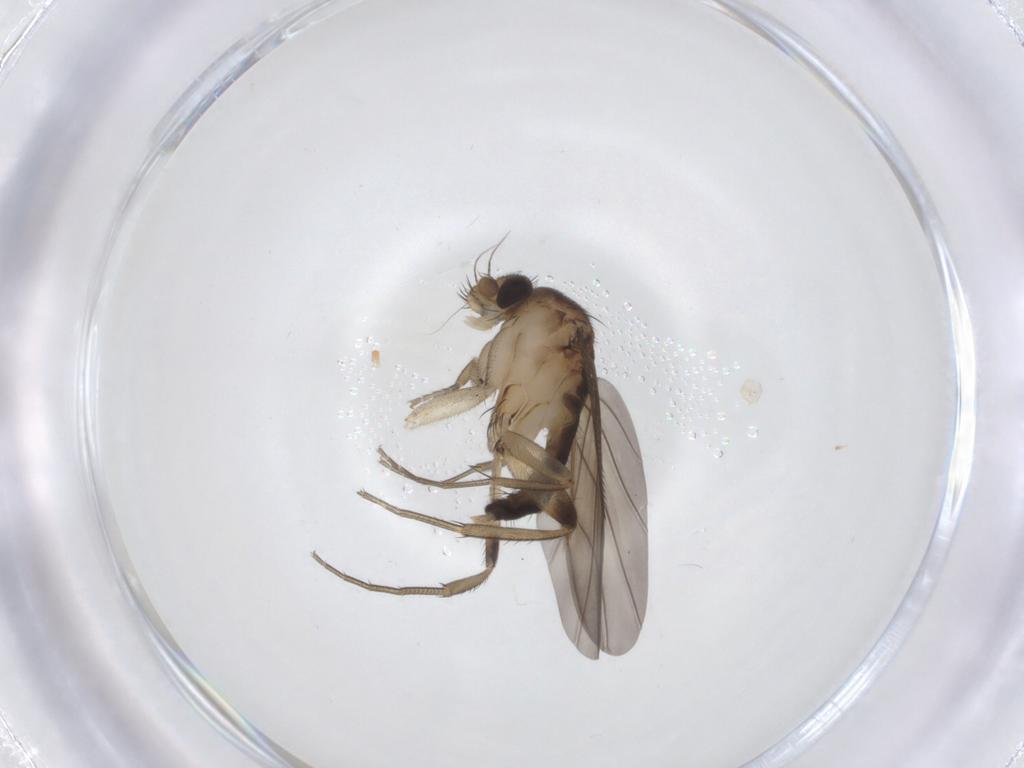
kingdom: Animalia
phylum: Arthropoda
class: Insecta
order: Diptera
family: Phoridae
